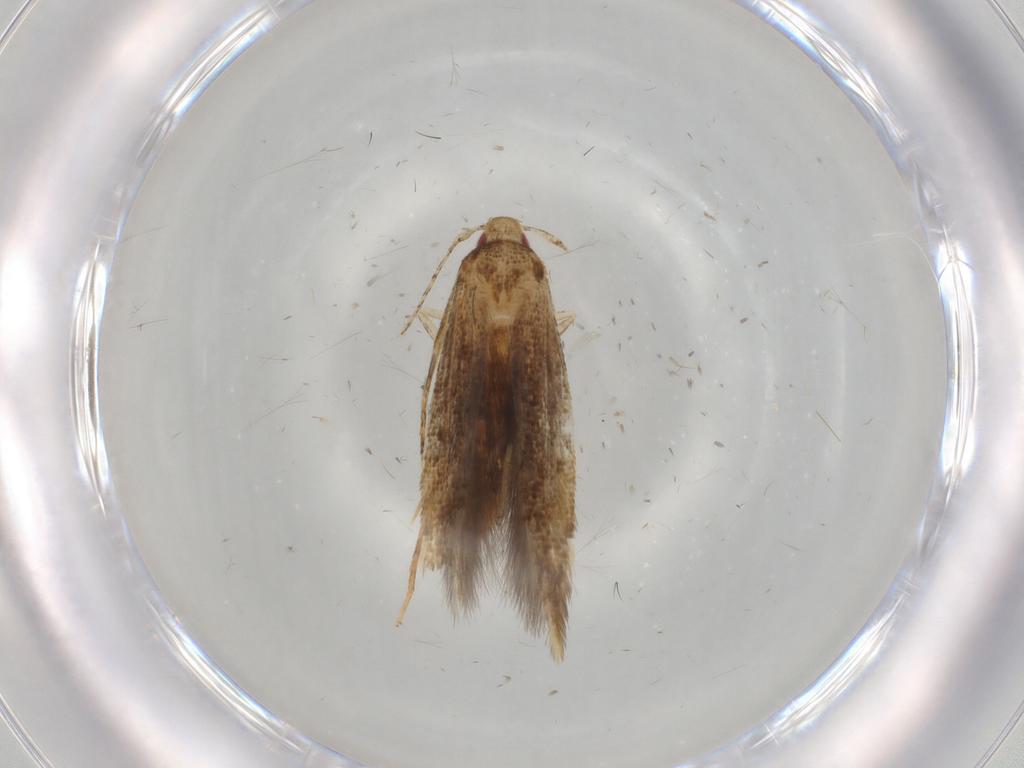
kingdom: Animalia
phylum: Arthropoda
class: Insecta
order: Lepidoptera
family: Gelechiidae
